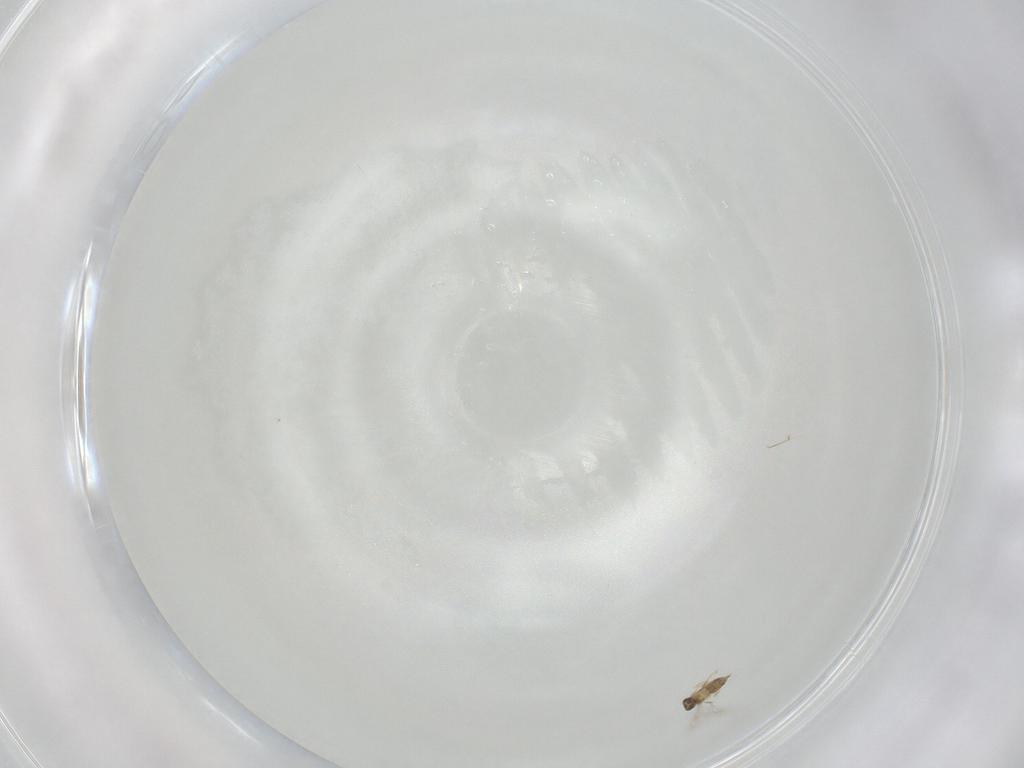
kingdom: Animalia
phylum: Arthropoda
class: Insecta
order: Hymenoptera
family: Mymaridae
